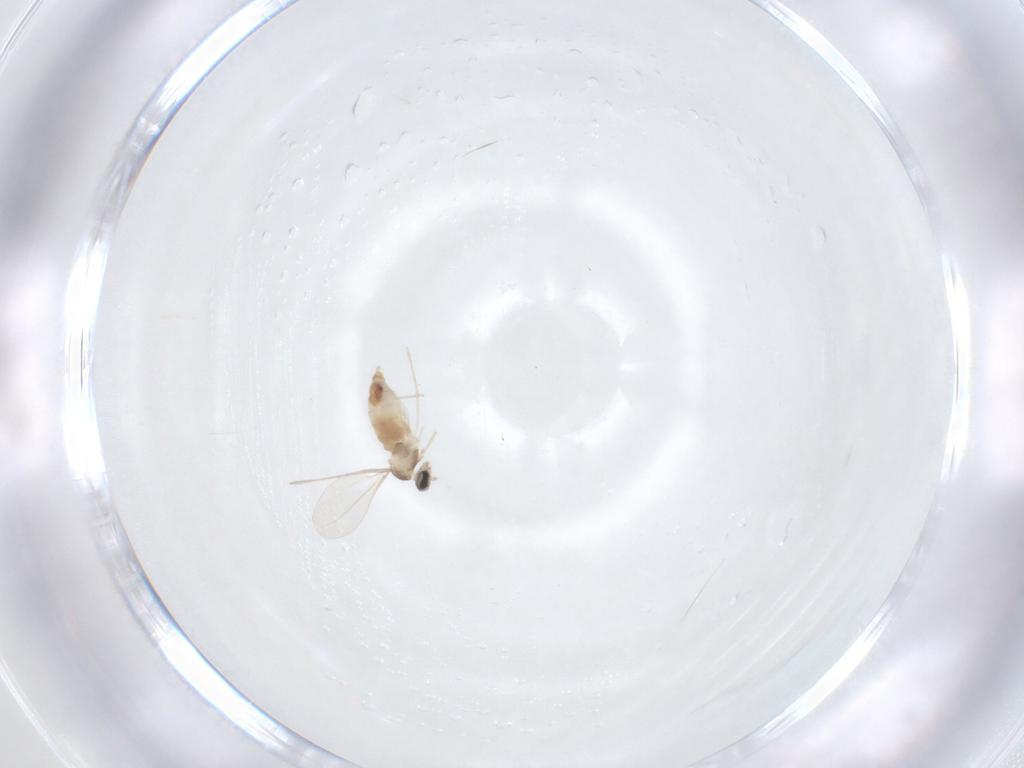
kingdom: Animalia
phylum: Arthropoda
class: Insecta
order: Diptera
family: Cecidomyiidae
